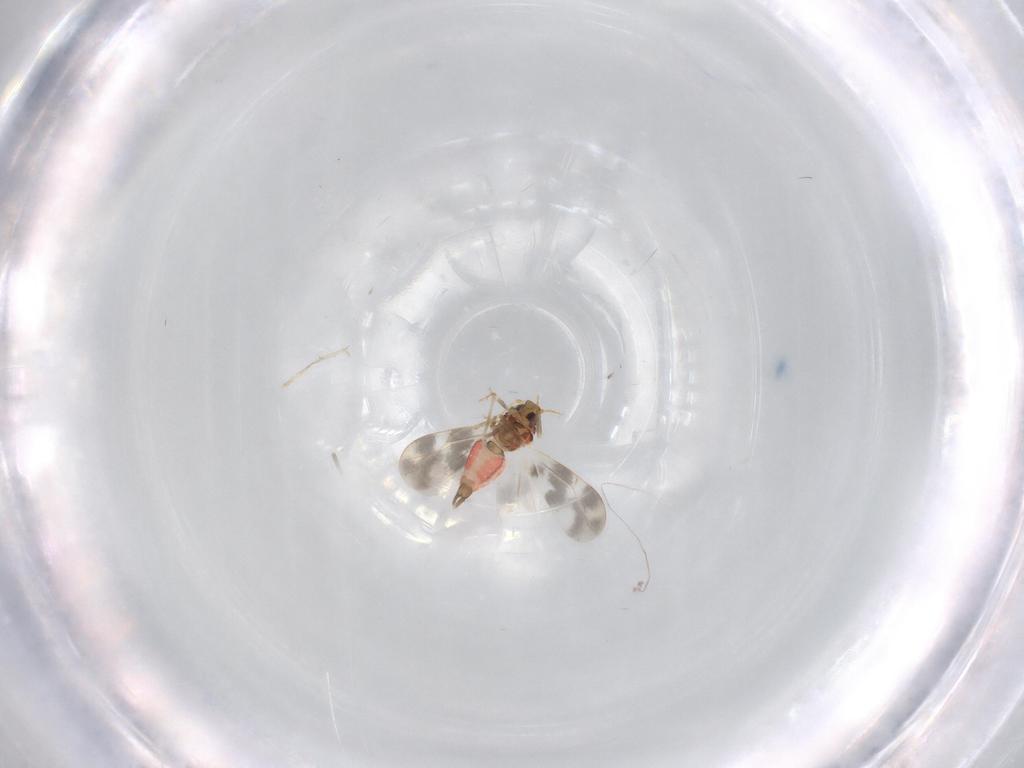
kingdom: Animalia
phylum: Arthropoda
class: Insecta
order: Hemiptera
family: Aleyrodidae
